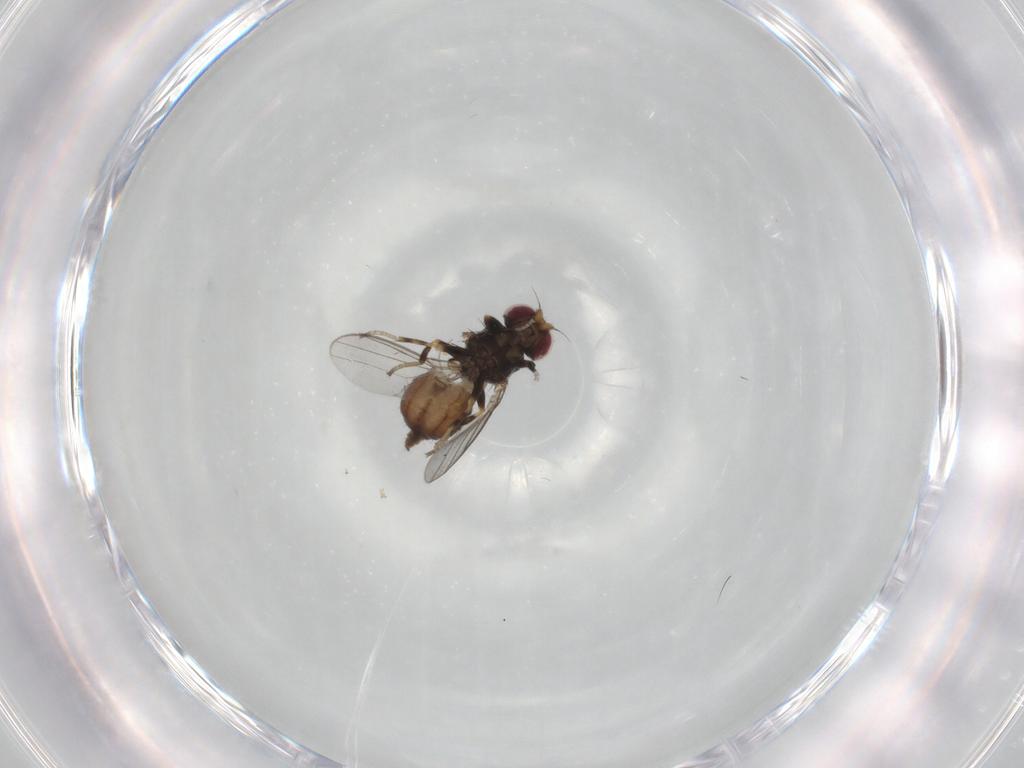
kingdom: Animalia
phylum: Arthropoda
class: Insecta
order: Diptera
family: Chloropidae
